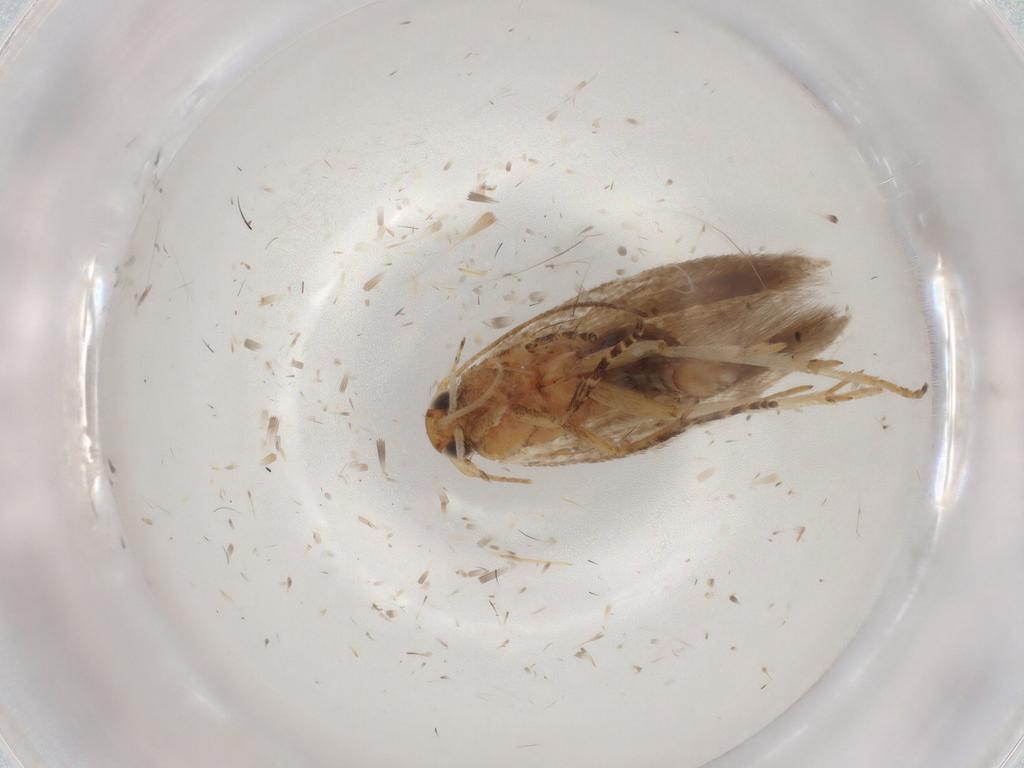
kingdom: Animalia
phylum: Arthropoda
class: Insecta
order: Lepidoptera
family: Gelechiidae
